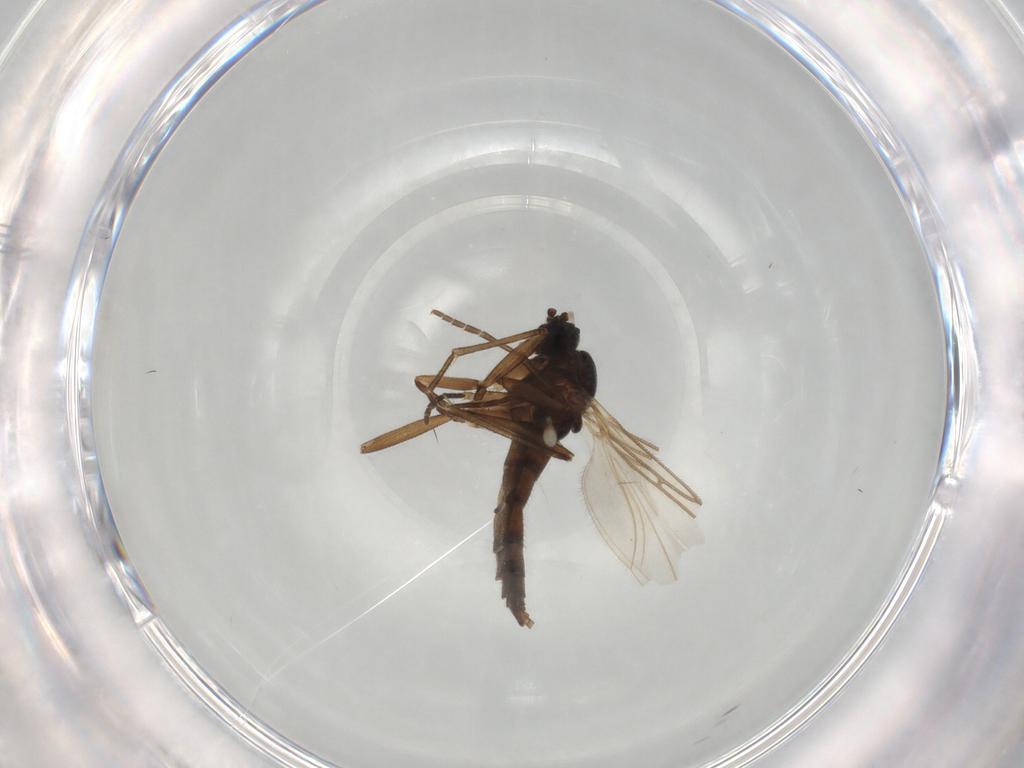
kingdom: Animalia
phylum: Arthropoda
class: Insecta
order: Diptera
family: Sciaridae
